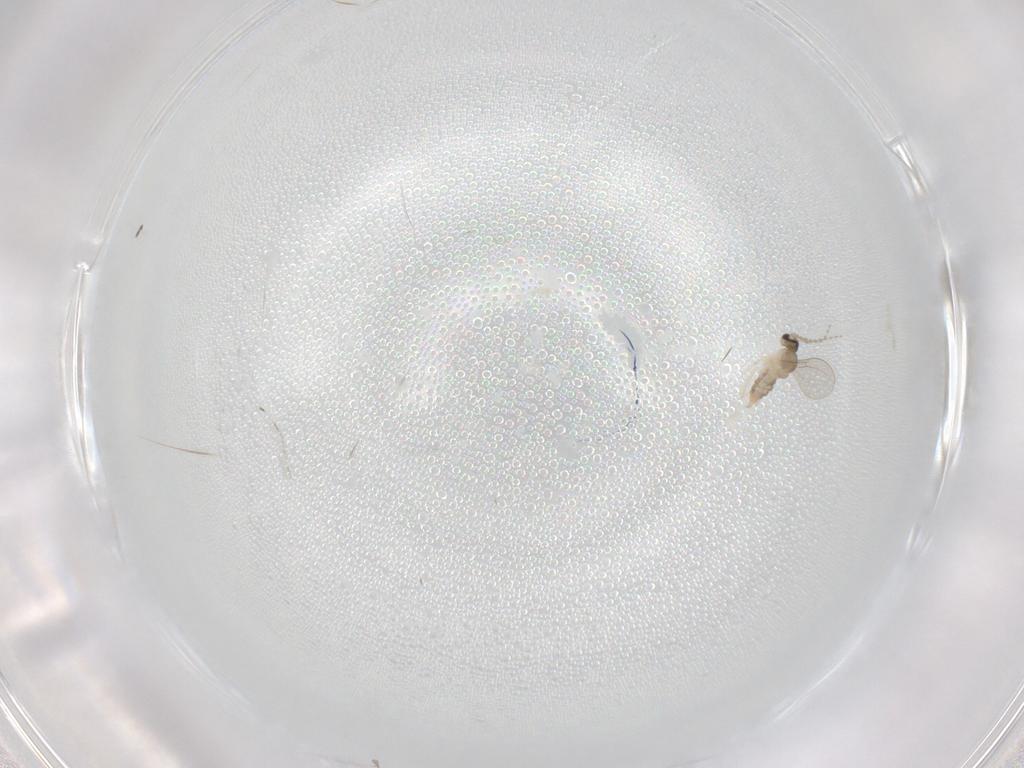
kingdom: Animalia
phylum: Arthropoda
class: Insecta
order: Diptera
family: Cecidomyiidae
